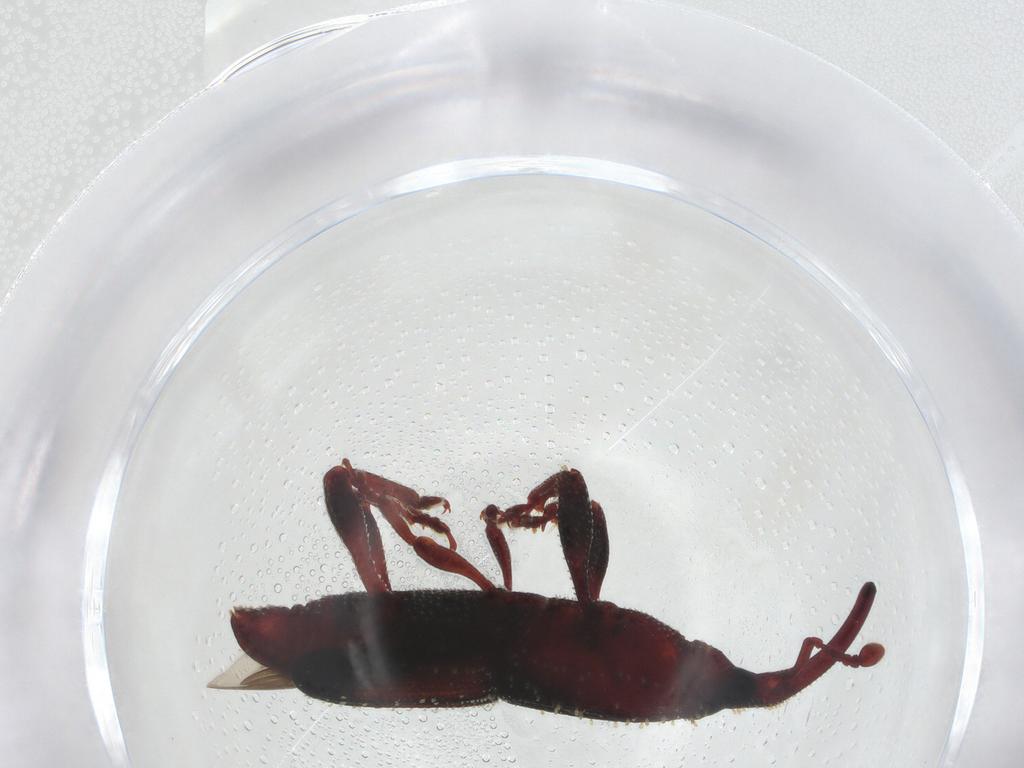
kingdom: Animalia
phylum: Arthropoda
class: Insecta
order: Coleoptera
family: Curculionidae
